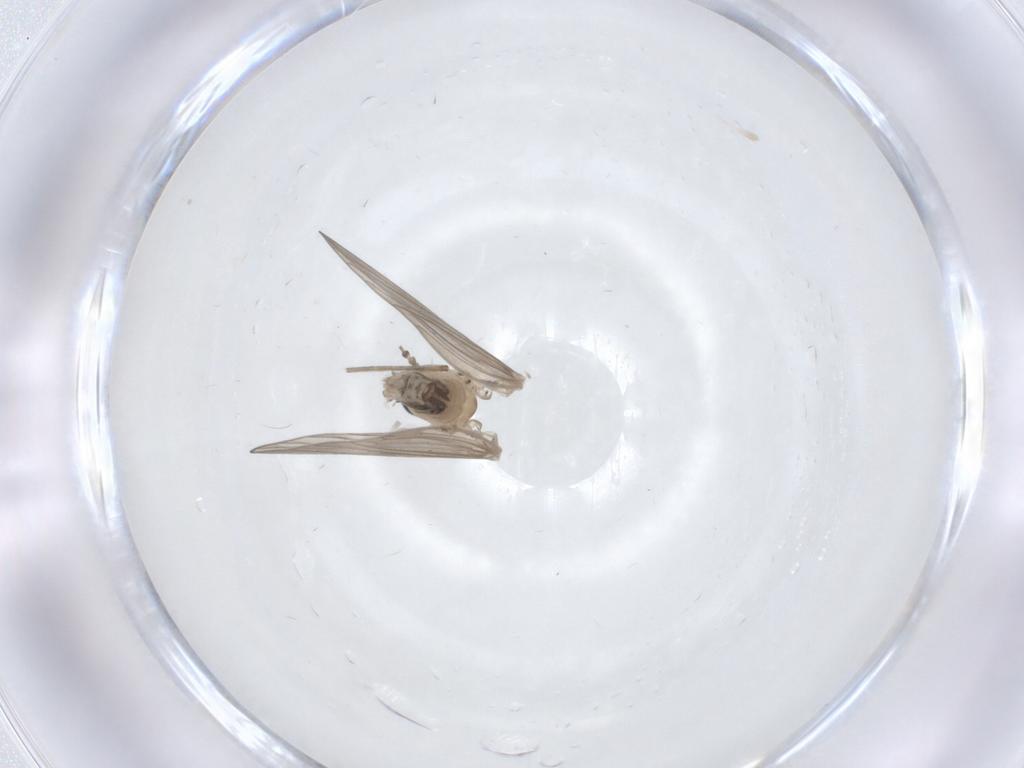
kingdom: Animalia
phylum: Arthropoda
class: Insecta
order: Diptera
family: Psychodidae
